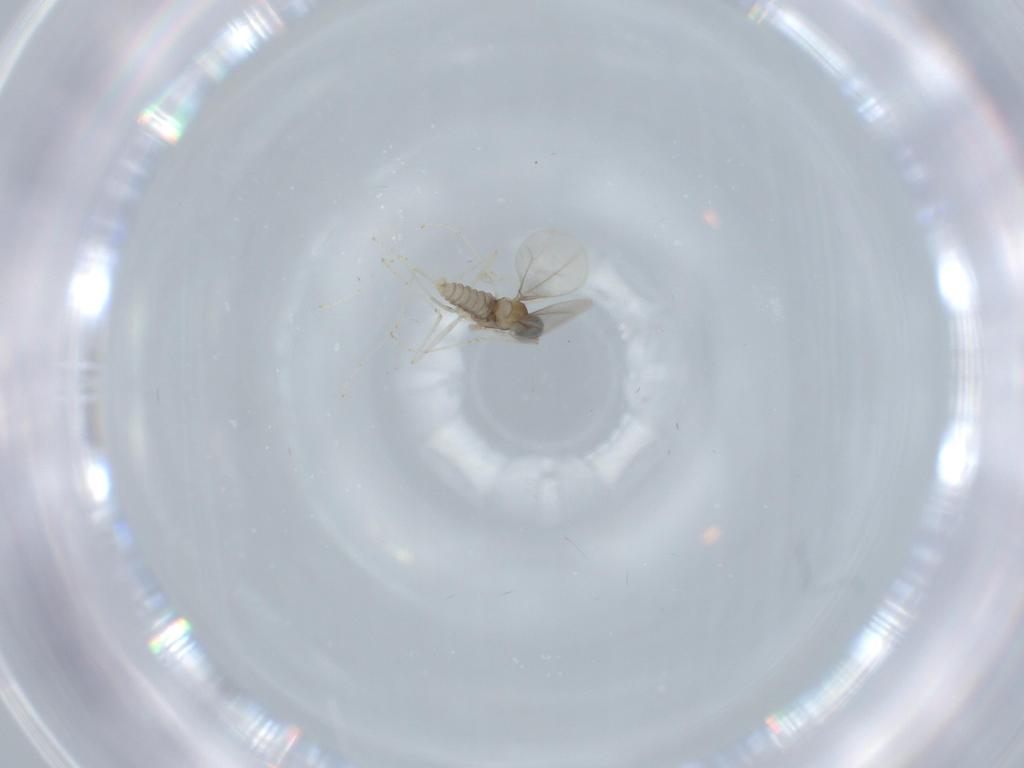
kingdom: Animalia
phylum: Arthropoda
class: Insecta
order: Diptera
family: Cecidomyiidae
